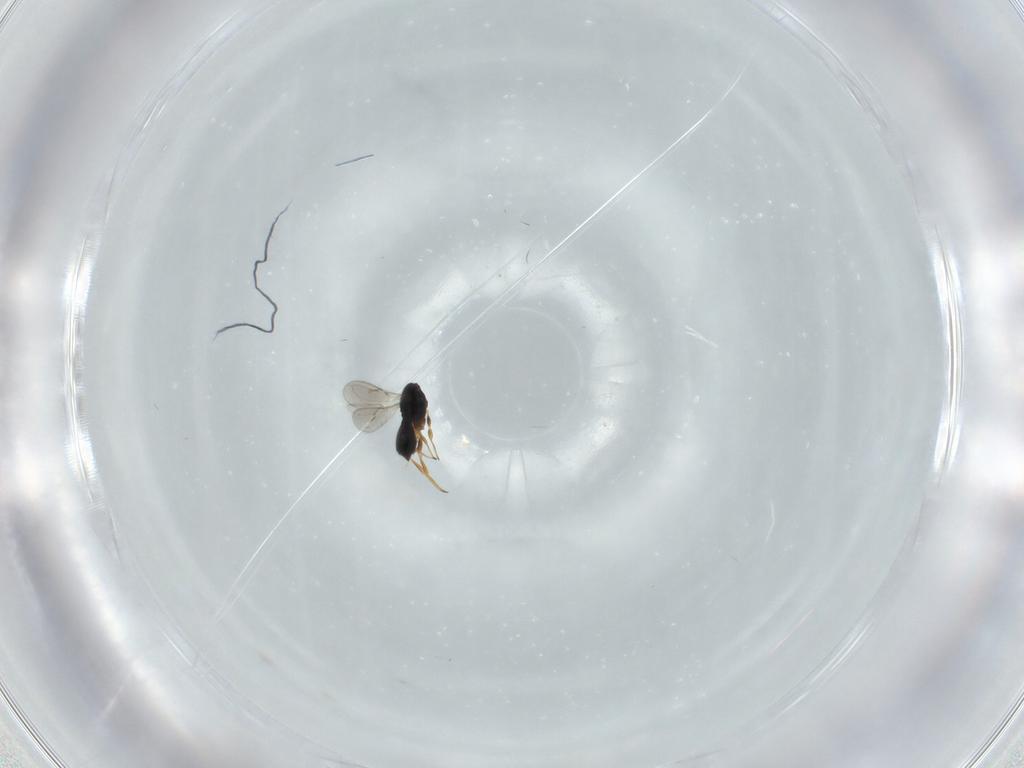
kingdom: Animalia
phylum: Arthropoda
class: Insecta
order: Hymenoptera
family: Scelionidae
